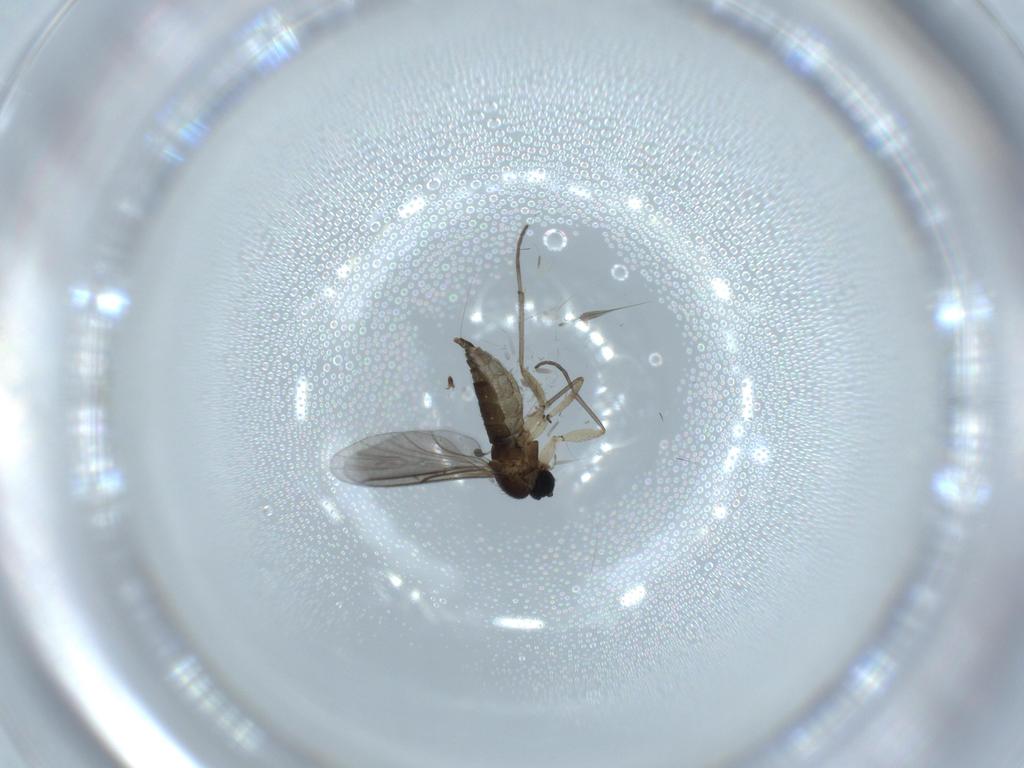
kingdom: Animalia
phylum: Arthropoda
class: Insecta
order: Diptera
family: Sciaridae
